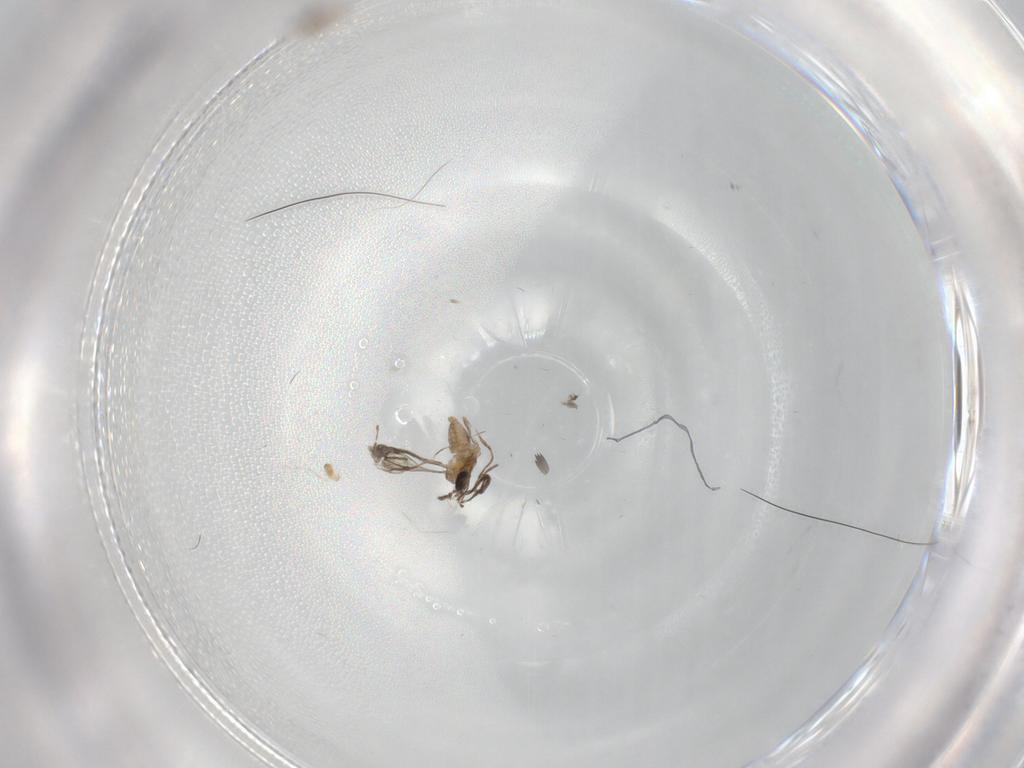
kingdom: Animalia
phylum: Arthropoda
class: Insecta
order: Diptera
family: Cecidomyiidae
